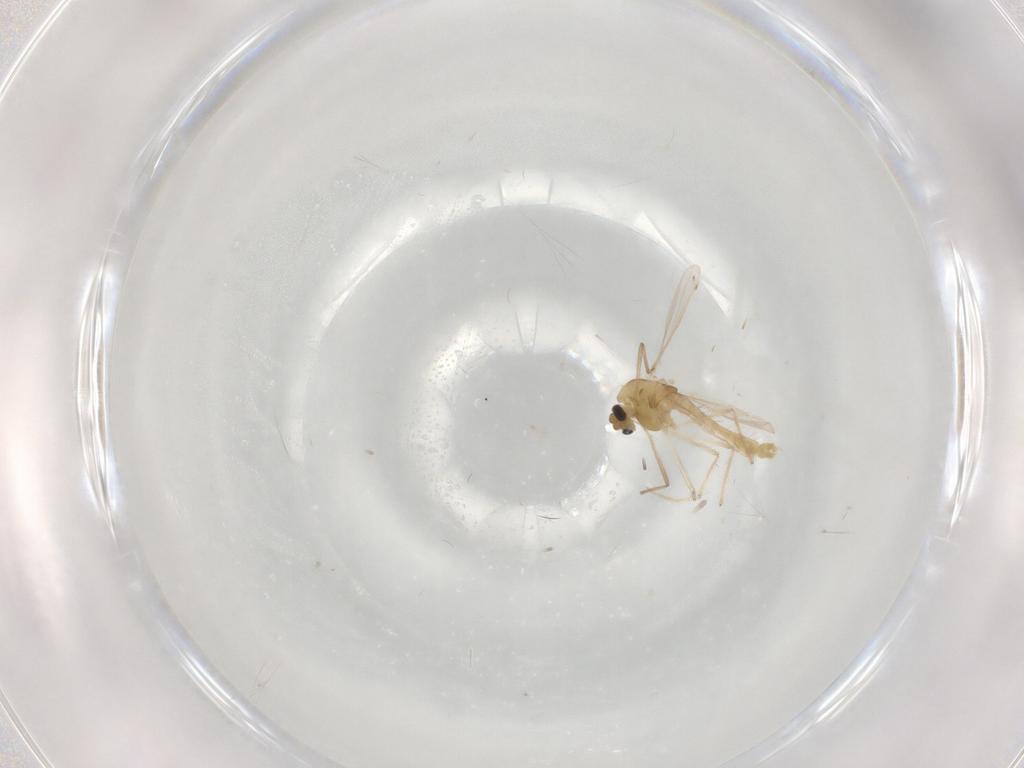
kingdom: Animalia
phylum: Arthropoda
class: Insecta
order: Diptera
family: Chironomidae
